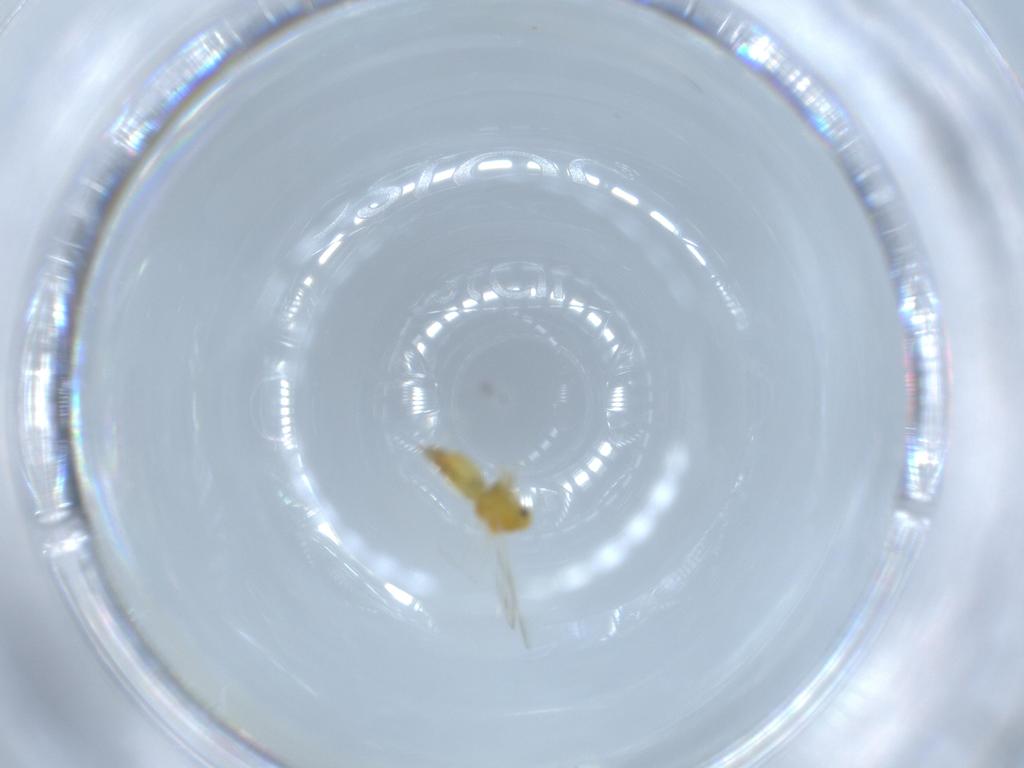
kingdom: Animalia
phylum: Arthropoda
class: Insecta
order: Hemiptera
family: Aleyrodidae
